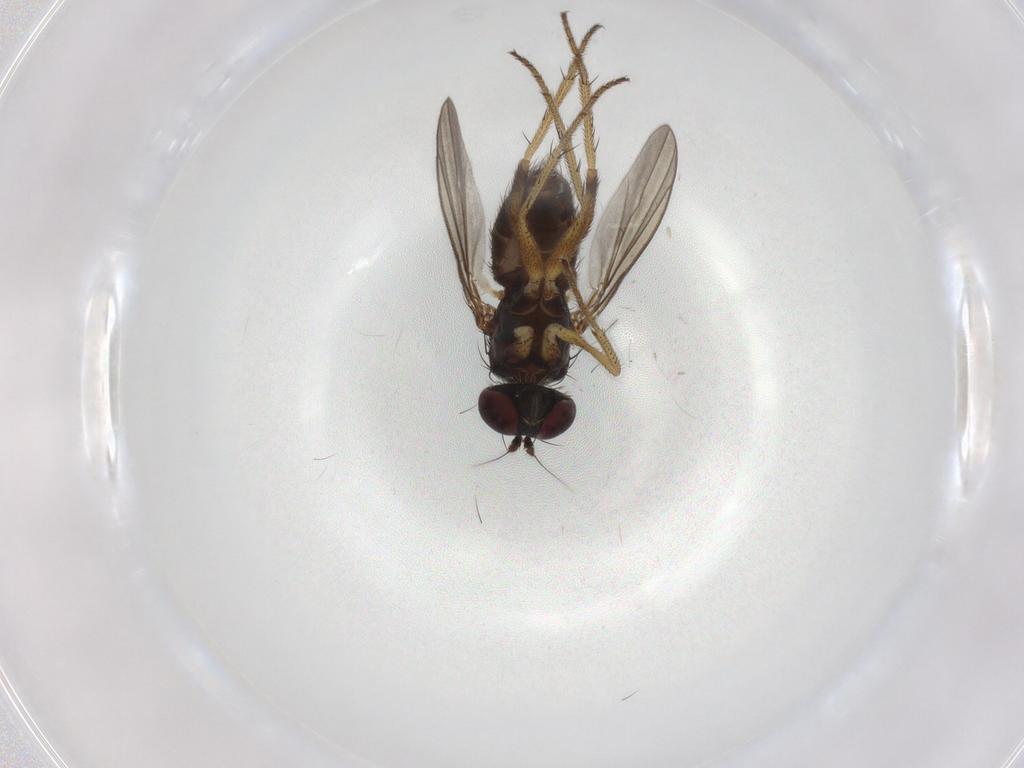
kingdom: Animalia
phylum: Arthropoda
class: Insecta
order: Diptera
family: Dolichopodidae
